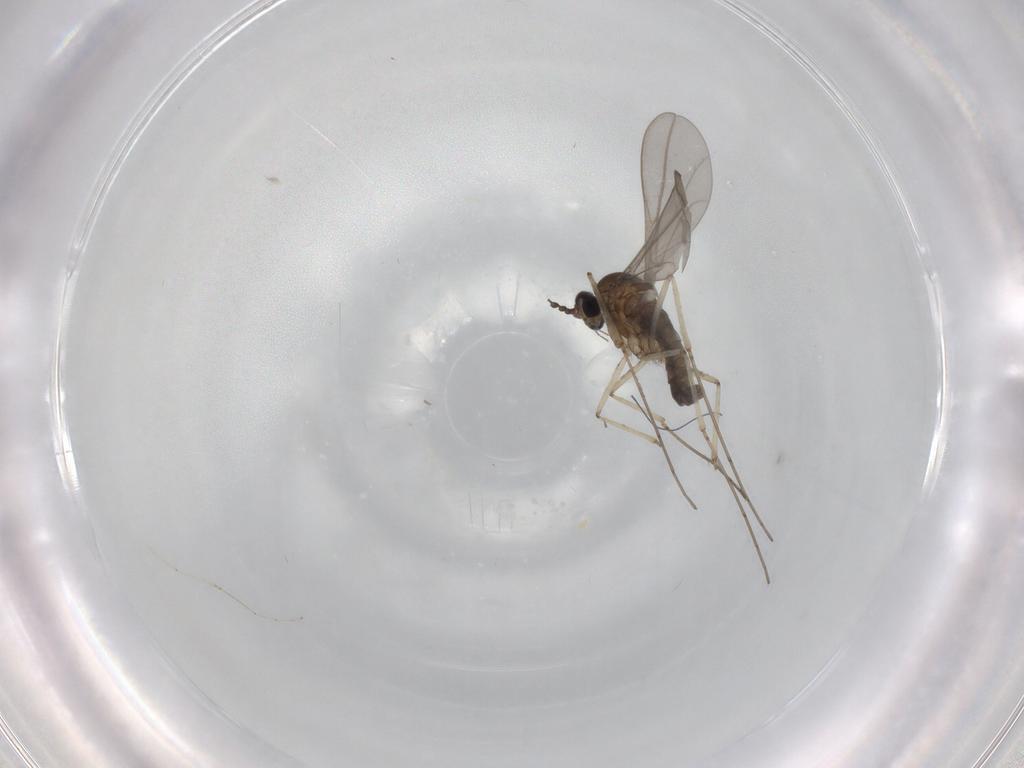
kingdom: Animalia
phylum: Arthropoda
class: Insecta
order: Diptera
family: Cecidomyiidae
